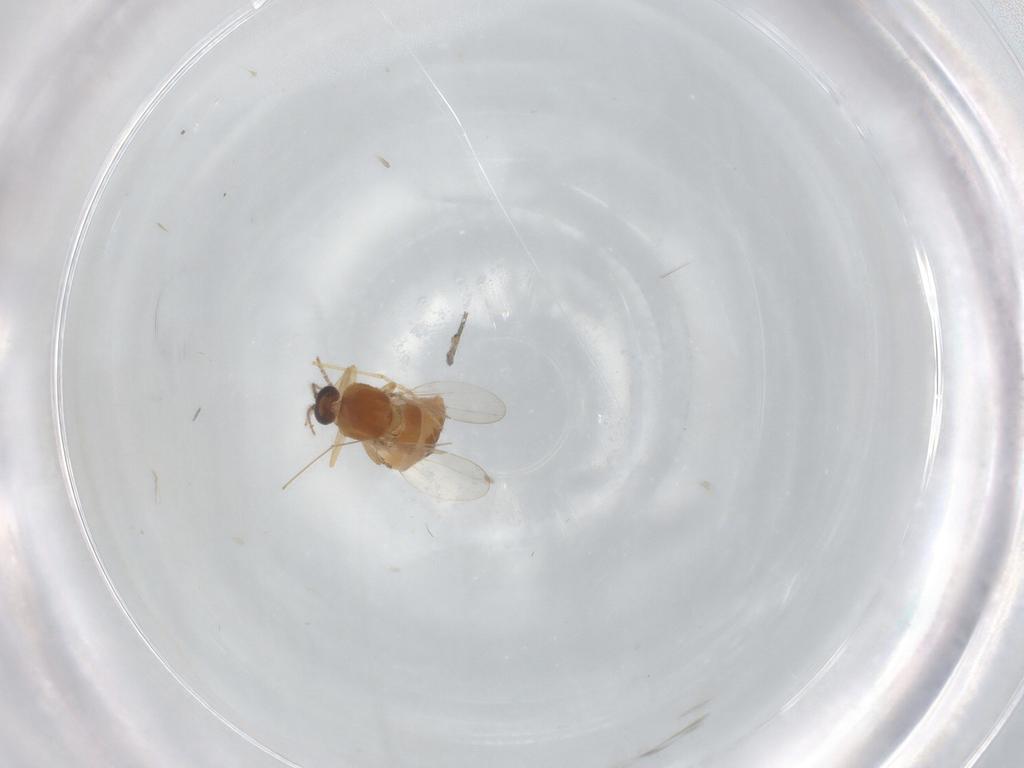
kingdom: Animalia
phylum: Arthropoda
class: Insecta
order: Diptera
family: Ceratopogonidae
